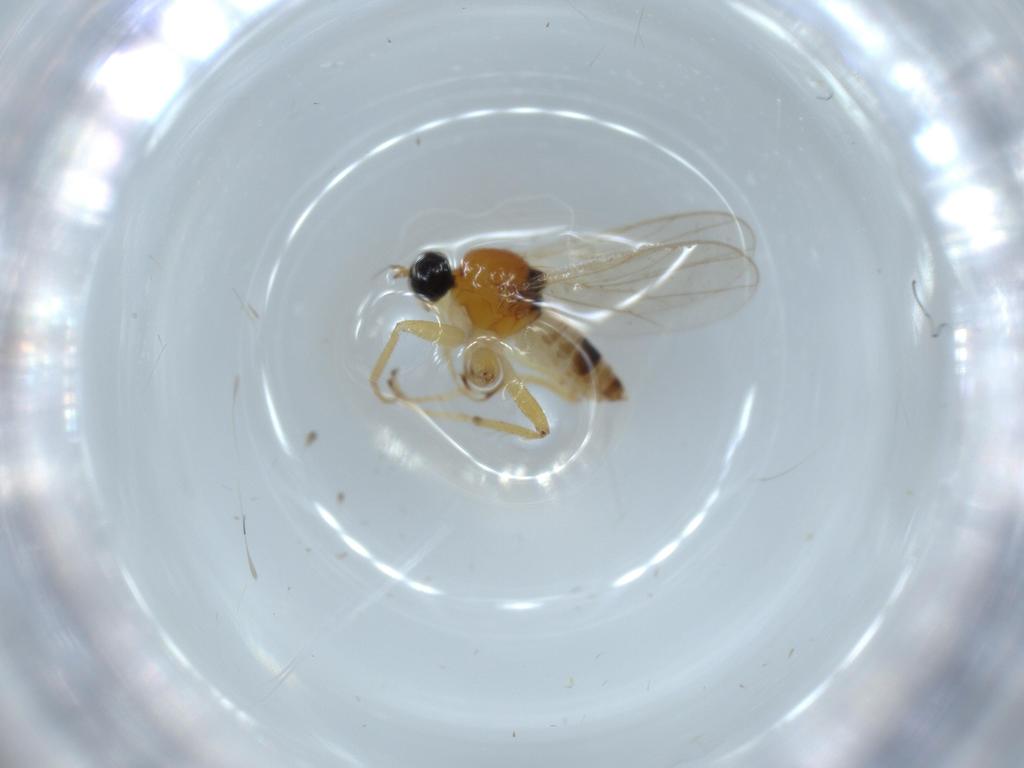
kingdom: Animalia
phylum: Arthropoda
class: Insecta
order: Diptera
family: Hybotidae
